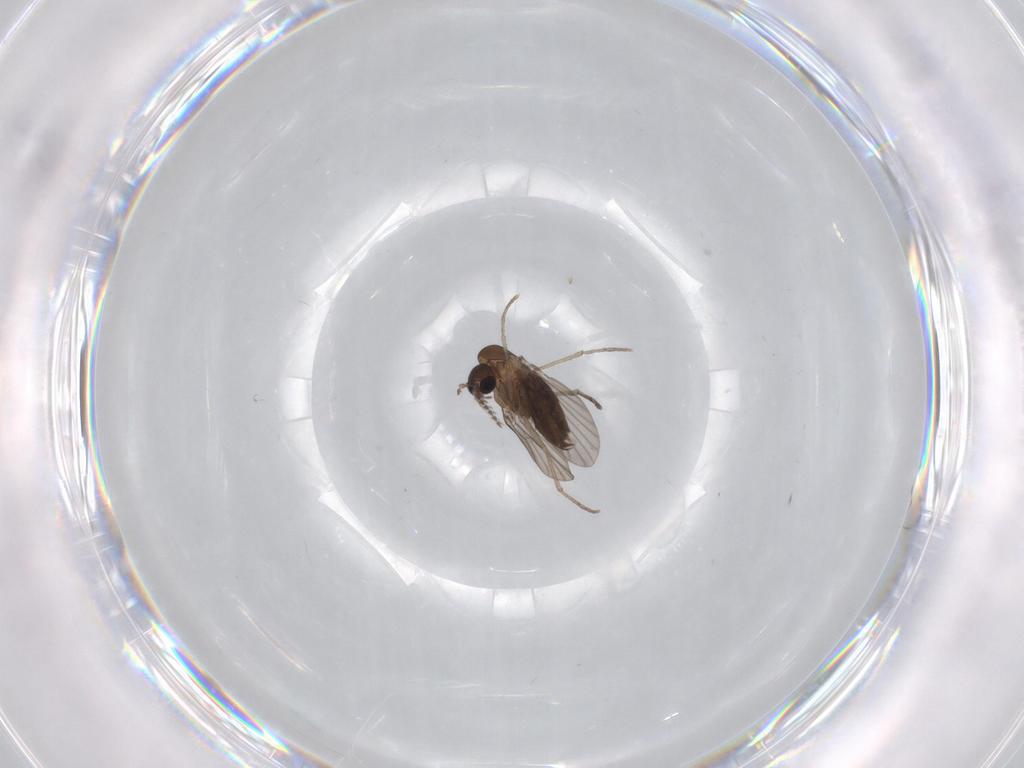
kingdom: Animalia
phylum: Arthropoda
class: Insecta
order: Diptera
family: Psychodidae
